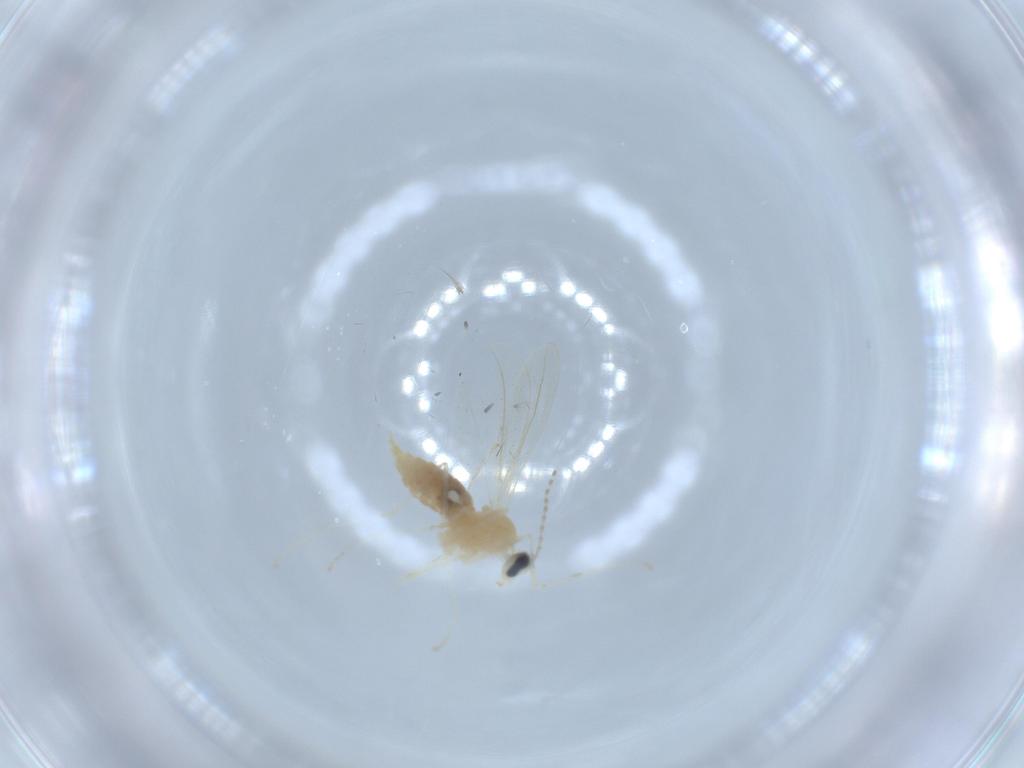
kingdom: Animalia
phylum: Arthropoda
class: Insecta
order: Diptera
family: Cecidomyiidae
